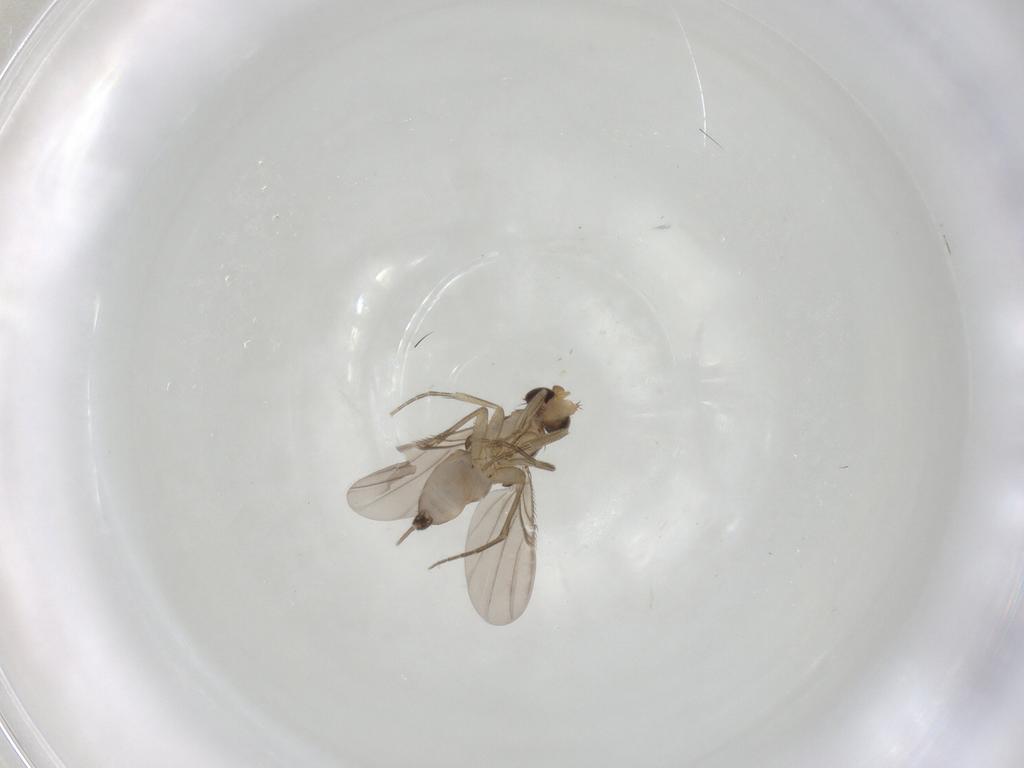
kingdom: Animalia
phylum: Arthropoda
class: Insecta
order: Diptera
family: Phoridae
